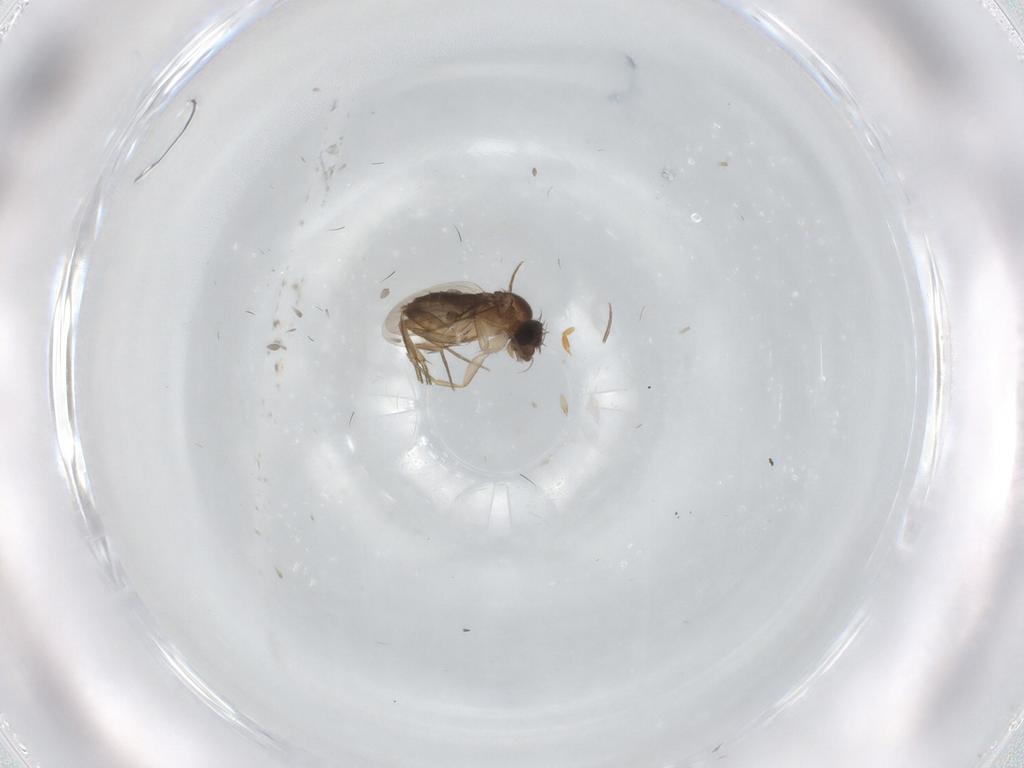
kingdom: Animalia
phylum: Arthropoda
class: Insecta
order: Diptera
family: Phoridae
